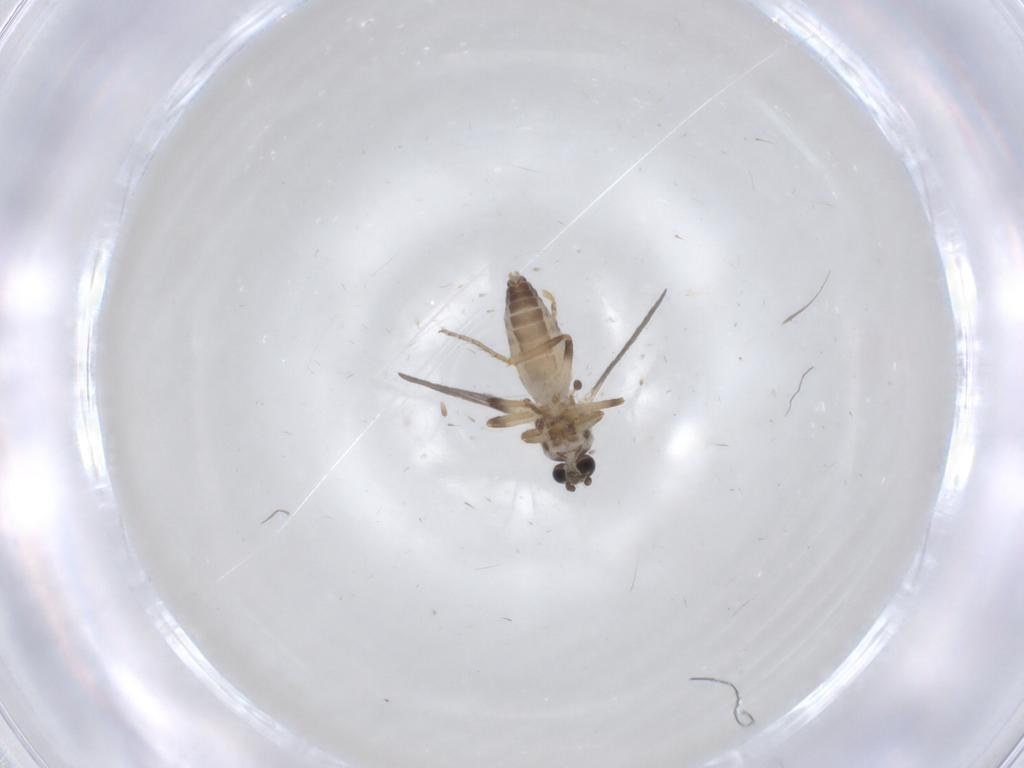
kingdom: Animalia
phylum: Arthropoda
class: Insecta
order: Diptera
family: Ceratopogonidae
